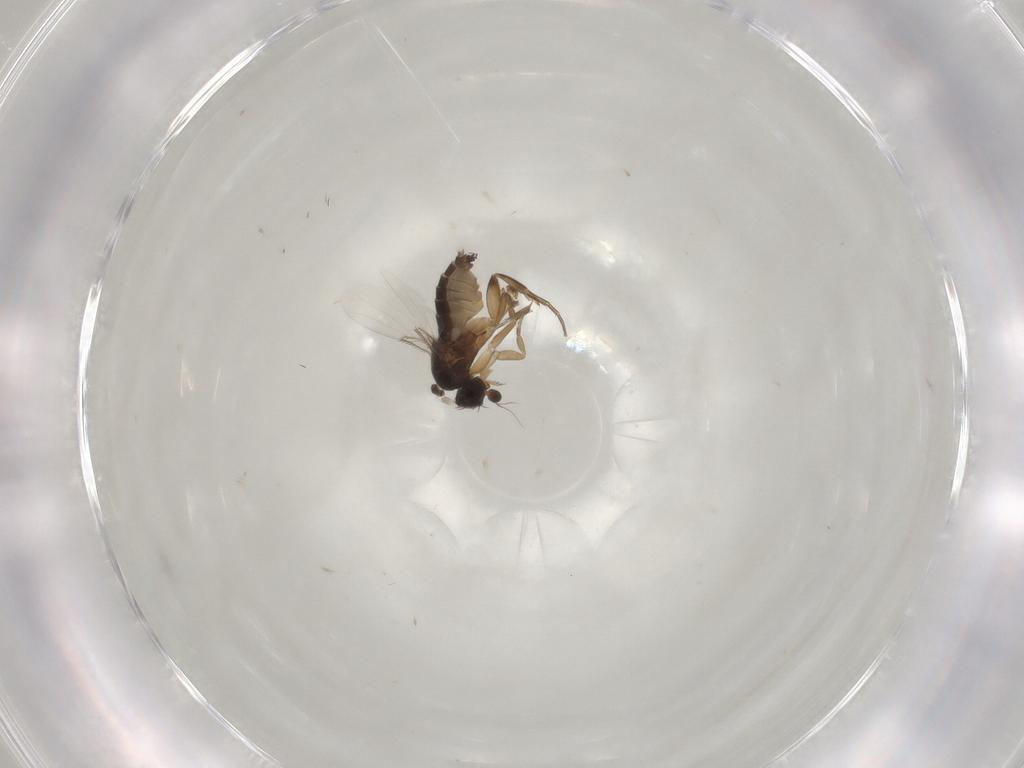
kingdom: Animalia
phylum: Arthropoda
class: Insecta
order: Diptera
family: Phoridae
